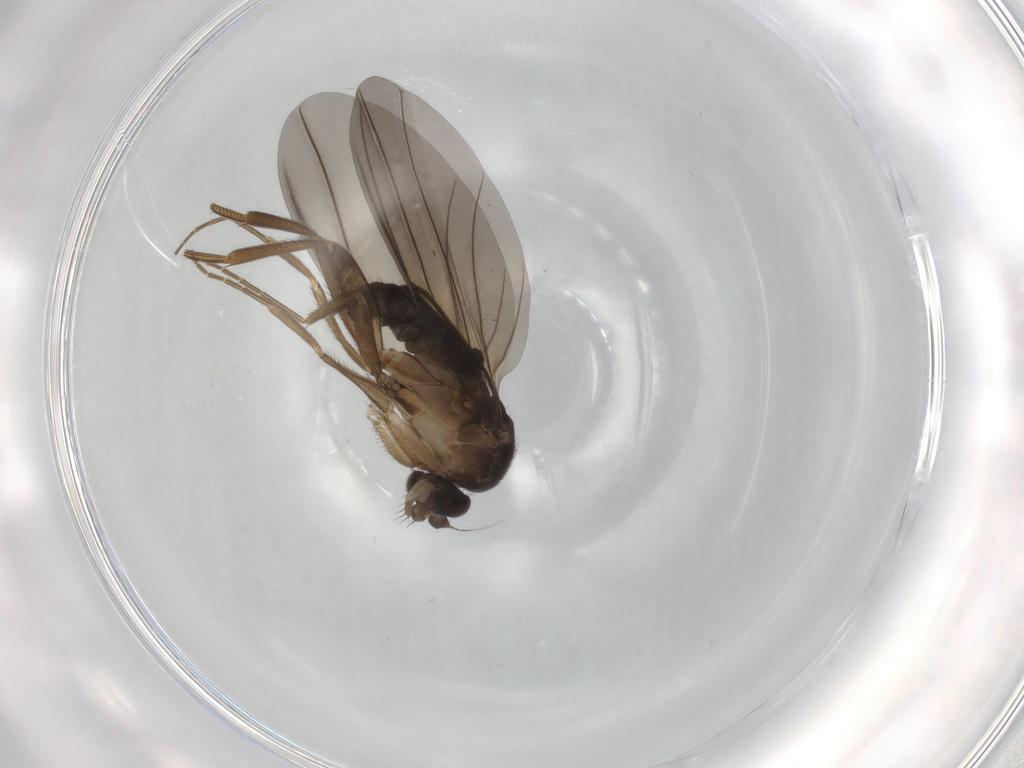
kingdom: Animalia
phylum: Arthropoda
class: Insecta
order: Diptera
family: Phoridae
